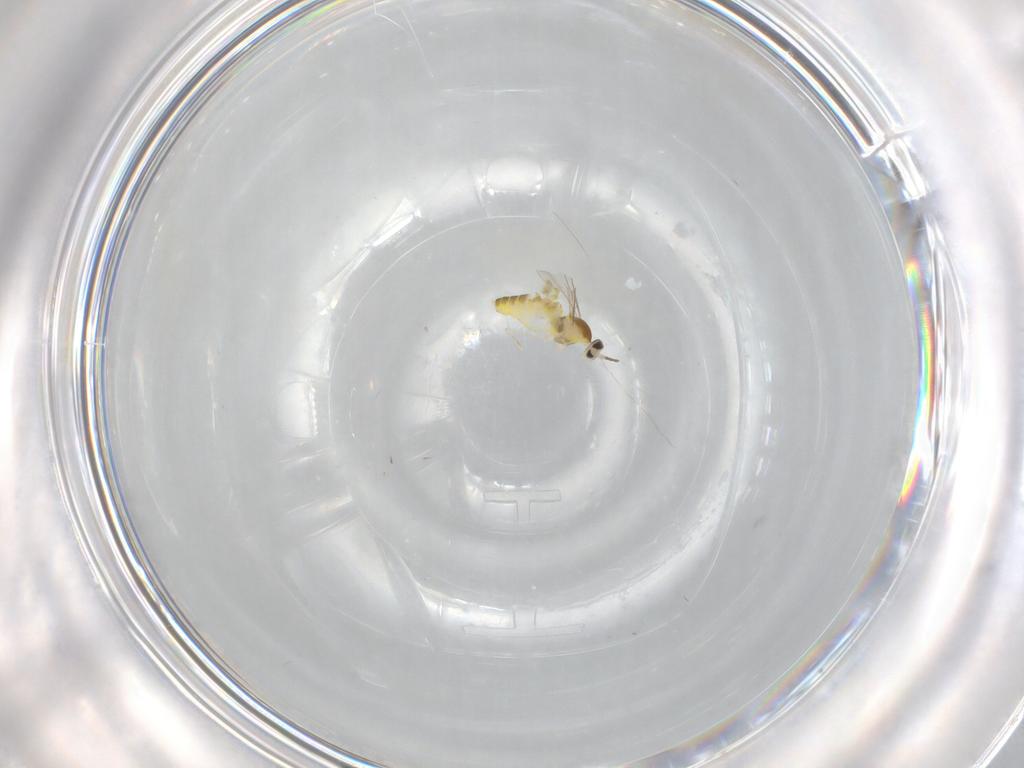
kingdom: Animalia
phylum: Arthropoda
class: Insecta
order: Diptera
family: Cecidomyiidae
